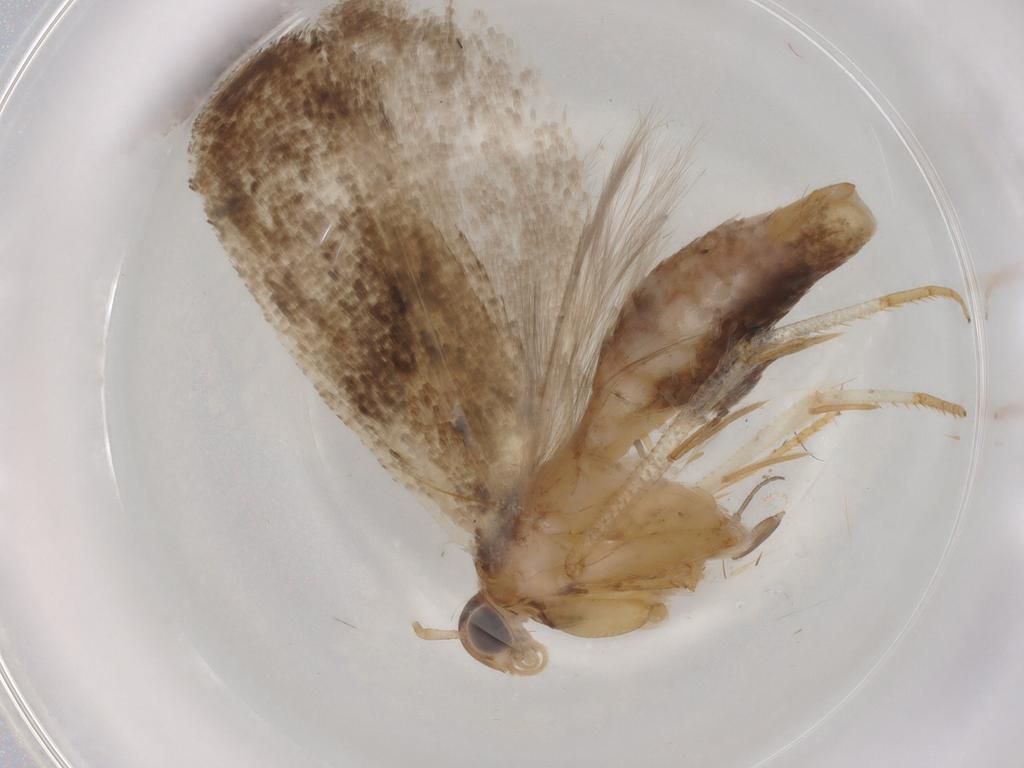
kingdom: Animalia
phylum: Arthropoda
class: Insecta
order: Lepidoptera
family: Gelechiidae
